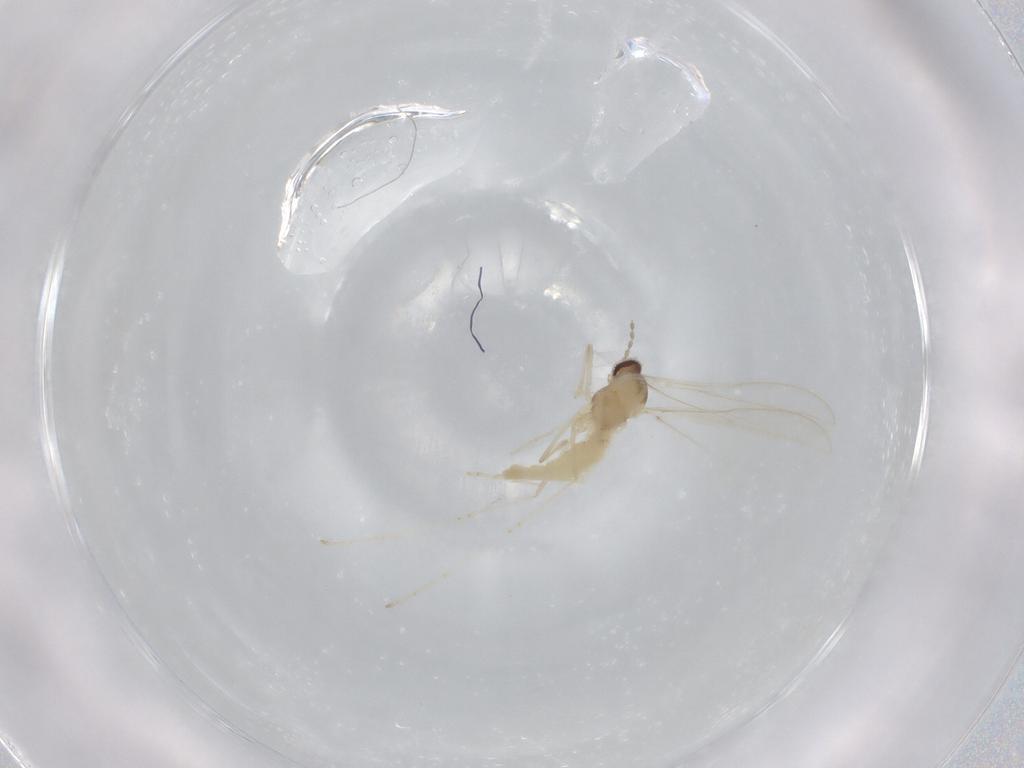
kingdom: Animalia
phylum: Arthropoda
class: Insecta
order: Diptera
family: Cecidomyiidae
